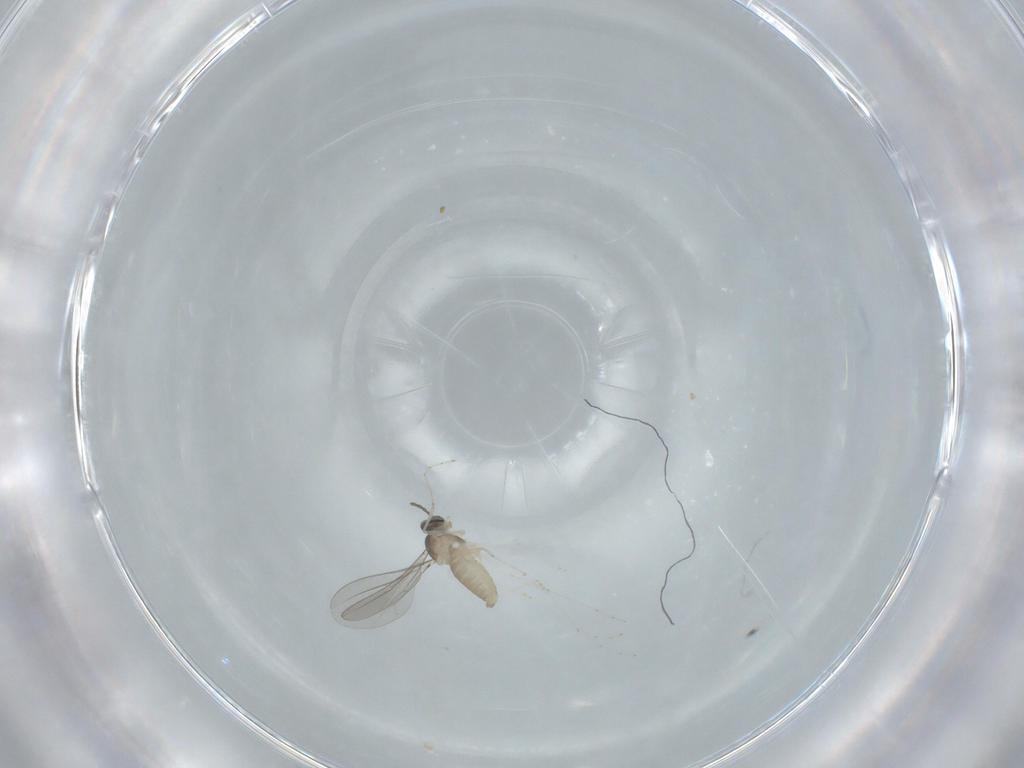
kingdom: Animalia
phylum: Arthropoda
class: Insecta
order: Diptera
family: Cecidomyiidae
